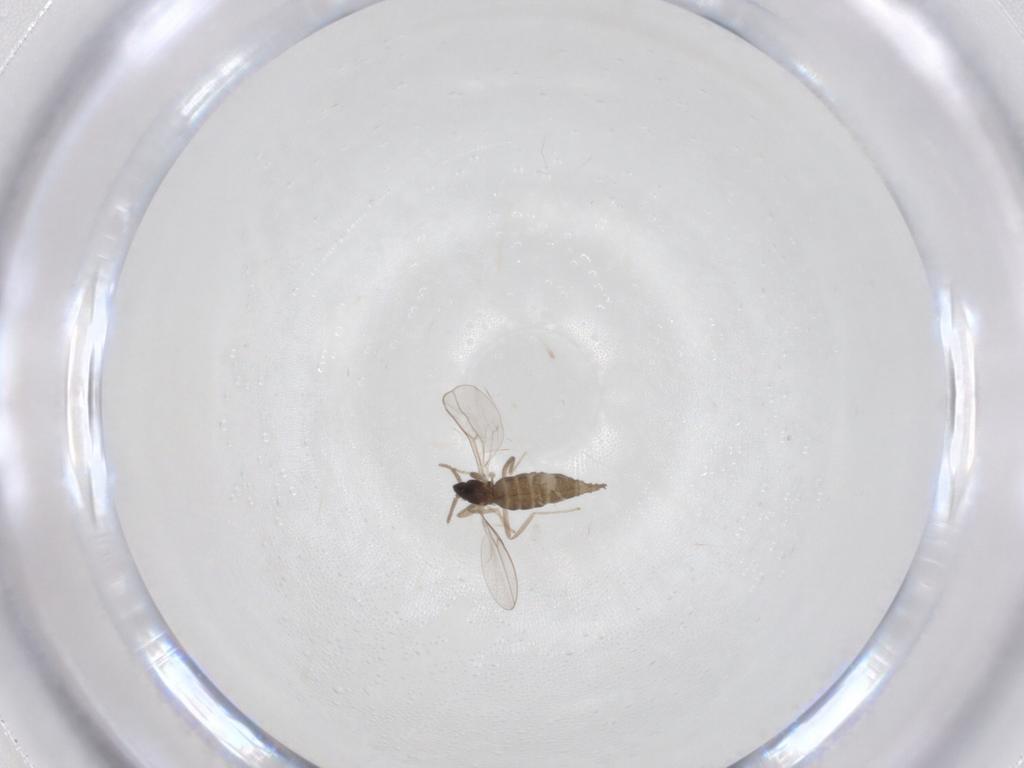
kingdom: Animalia
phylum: Arthropoda
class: Insecta
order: Diptera
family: Cecidomyiidae
